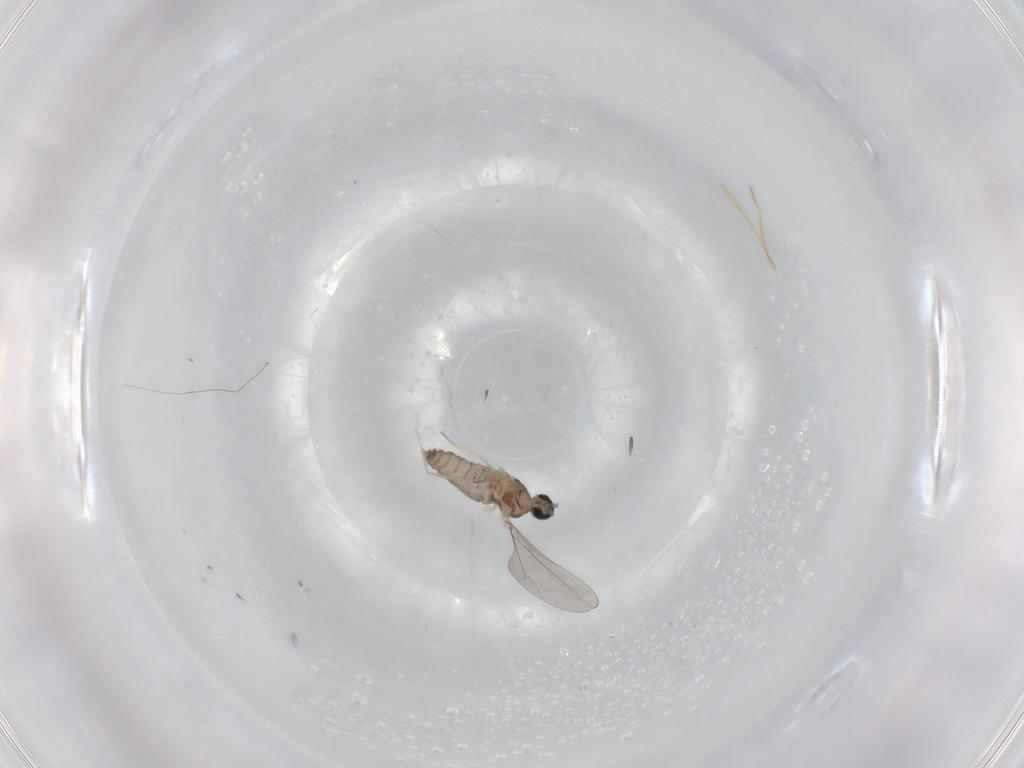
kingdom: Animalia
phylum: Arthropoda
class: Insecta
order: Diptera
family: Cecidomyiidae
